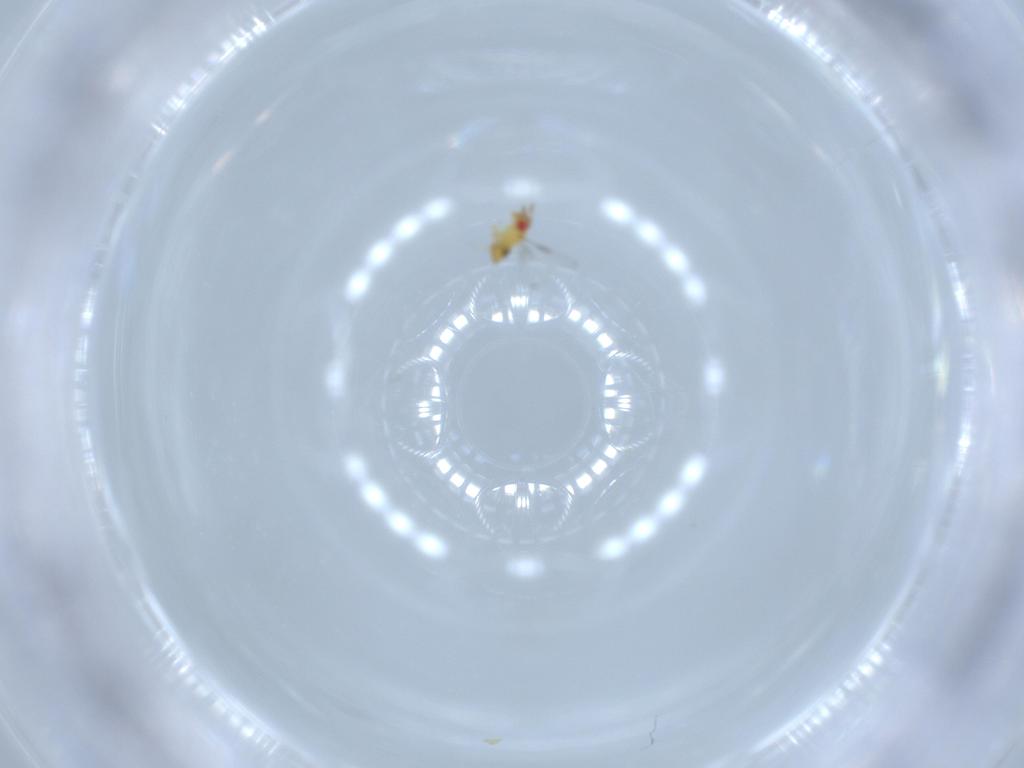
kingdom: Animalia
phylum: Arthropoda
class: Insecta
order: Hymenoptera
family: Trichogrammatidae
